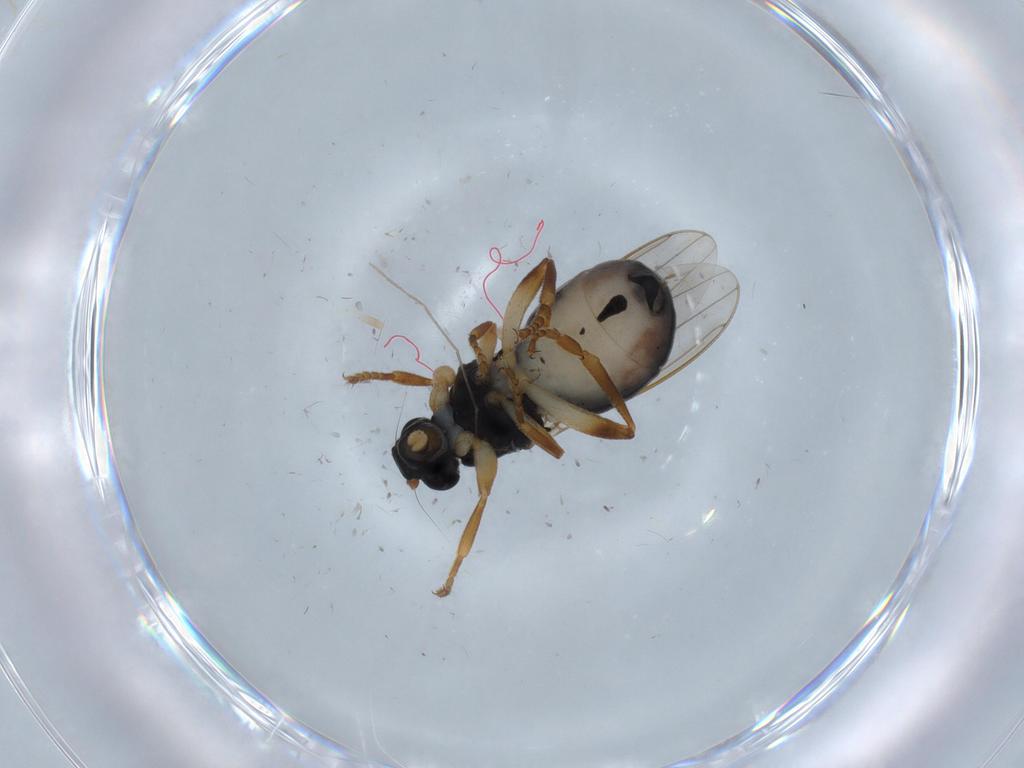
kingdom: Animalia
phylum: Arthropoda
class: Insecta
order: Diptera
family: Sphaeroceridae
